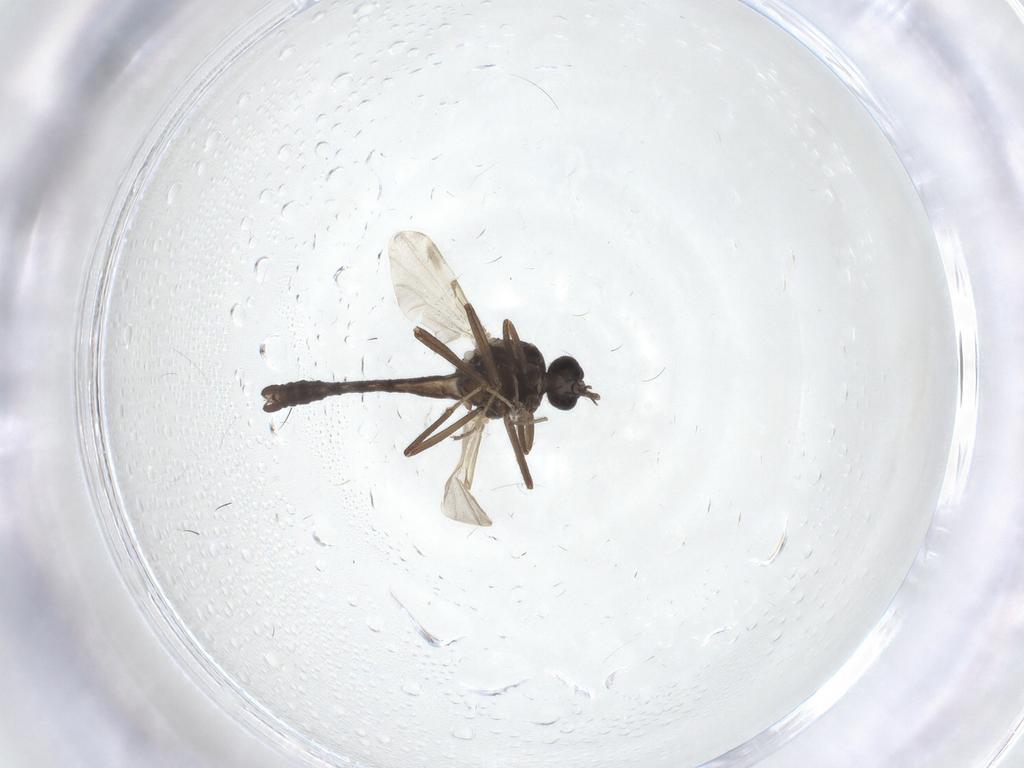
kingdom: Animalia
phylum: Arthropoda
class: Insecta
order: Diptera
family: Ceratopogonidae
